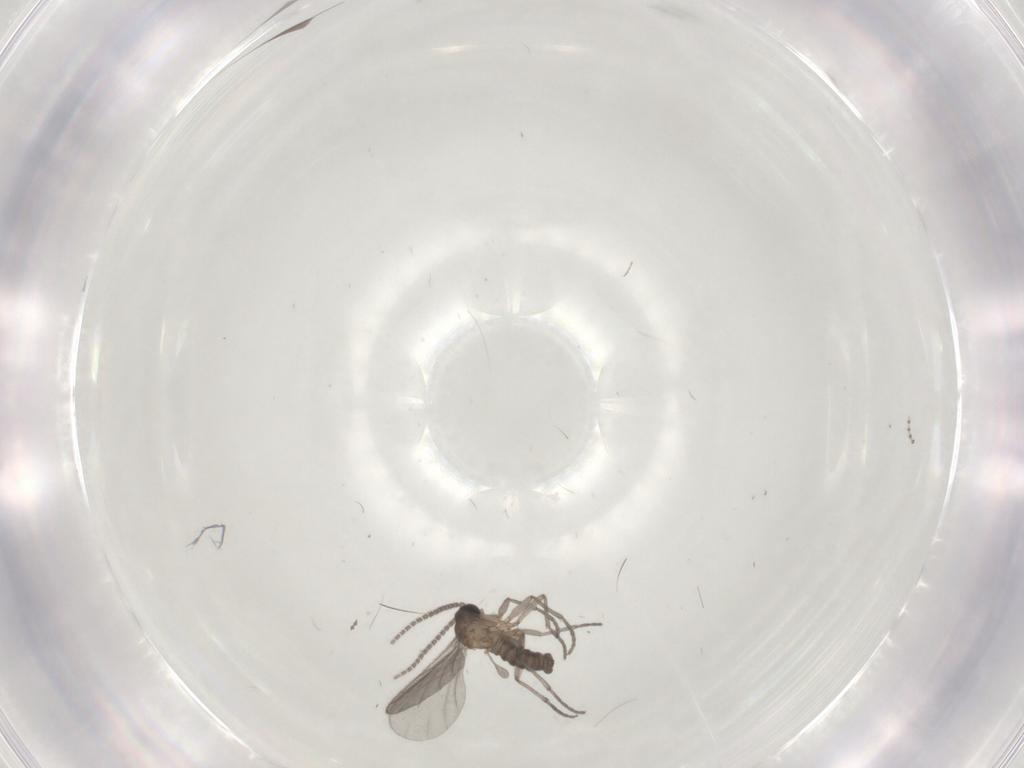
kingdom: Animalia
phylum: Arthropoda
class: Insecta
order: Diptera
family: Sciaridae
